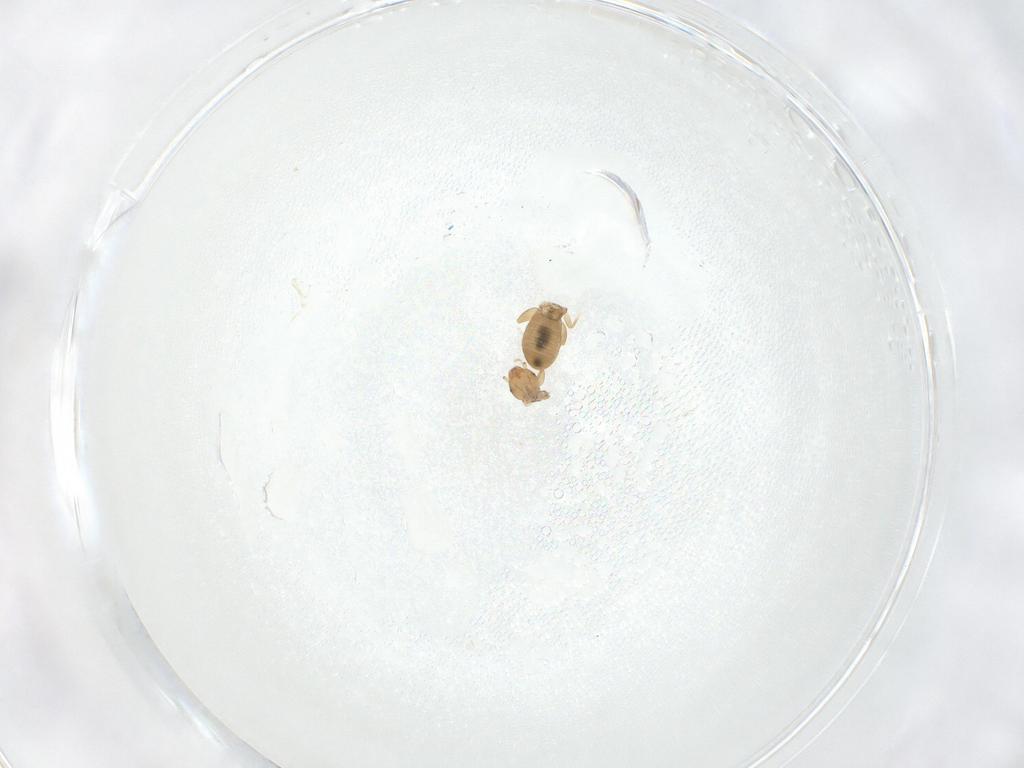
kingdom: Animalia
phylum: Arthropoda
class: Insecta
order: Psocodea
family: Liposcelididae
